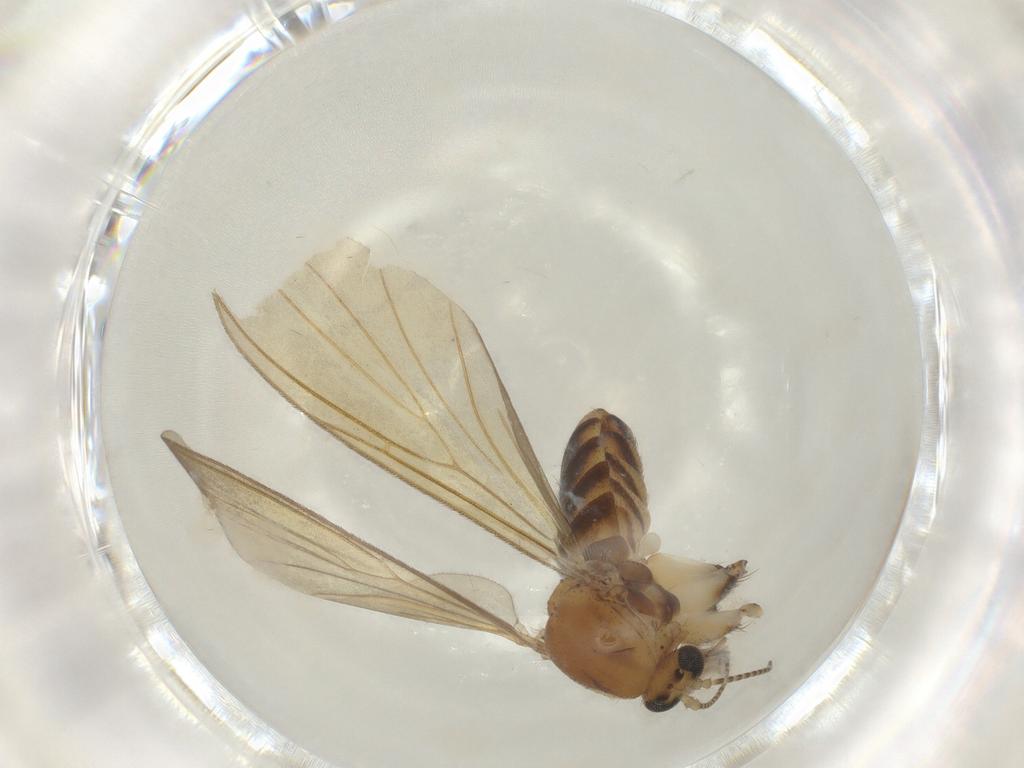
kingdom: Animalia
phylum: Arthropoda
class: Insecta
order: Diptera
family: Mycetophilidae
